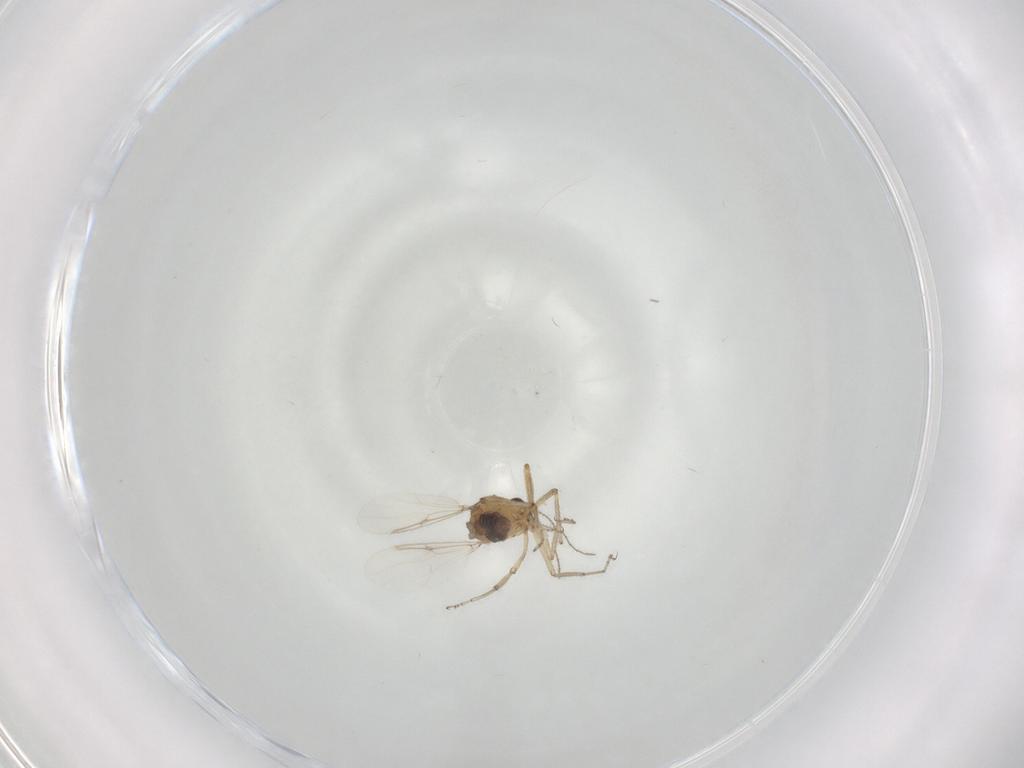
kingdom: Animalia
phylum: Arthropoda
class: Insecta
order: Diptera
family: Ceratopogonidae
